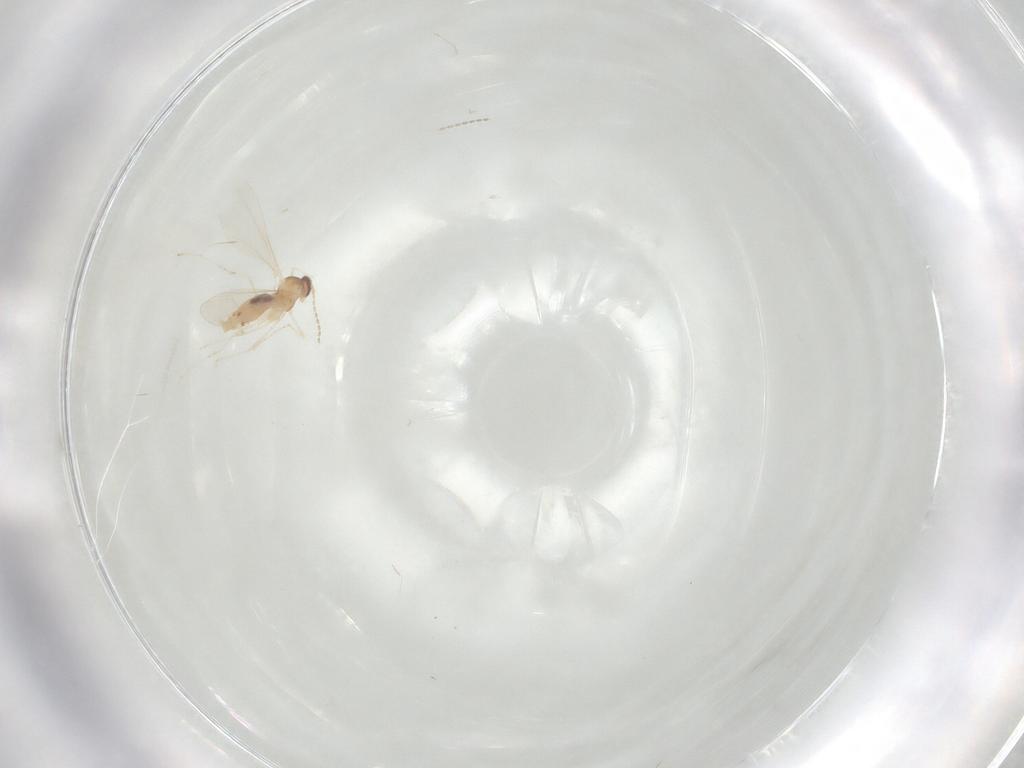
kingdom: Animalia
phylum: Arthropoda
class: Insecta
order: Diptera
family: Cecidomyiidae
